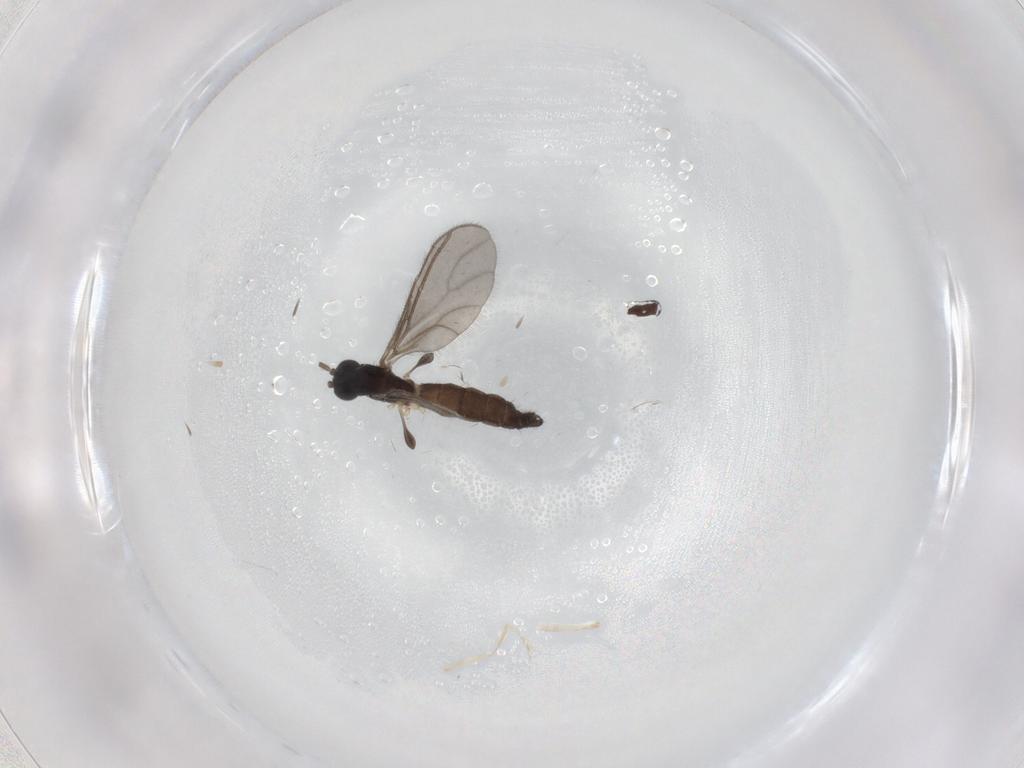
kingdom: Animalia
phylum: Arthropoda
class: Insecta
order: Diptera
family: Sciaridae
